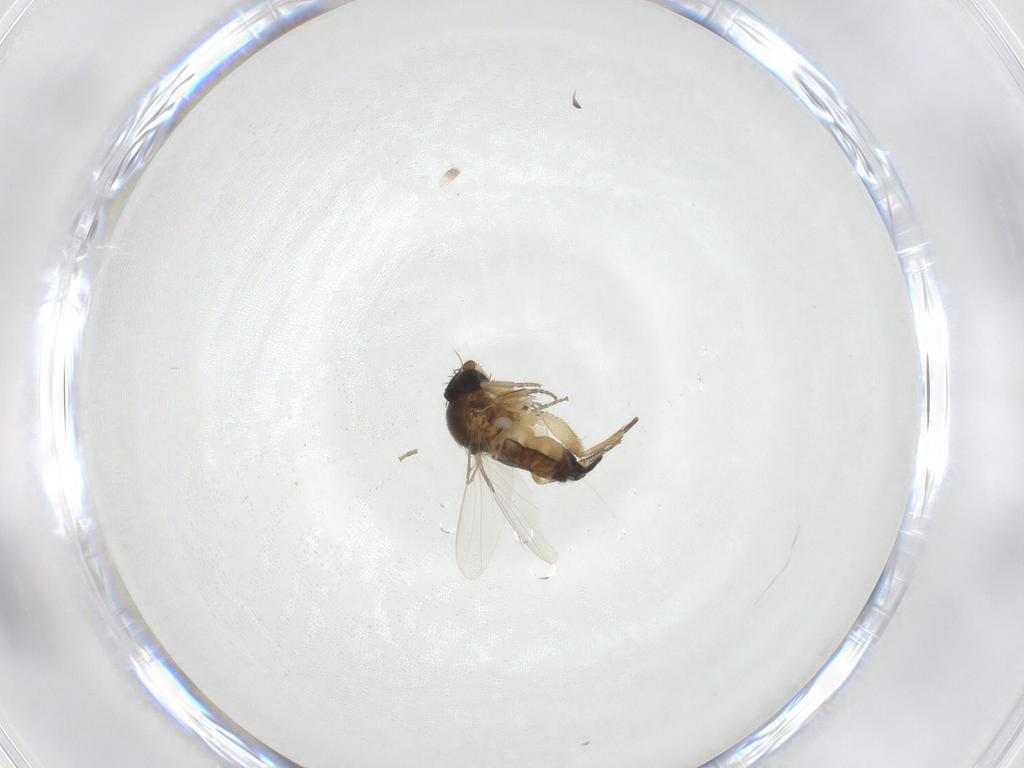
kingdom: Animalia
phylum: Arthropoda
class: Insecta
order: Diptera
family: Phoridae
